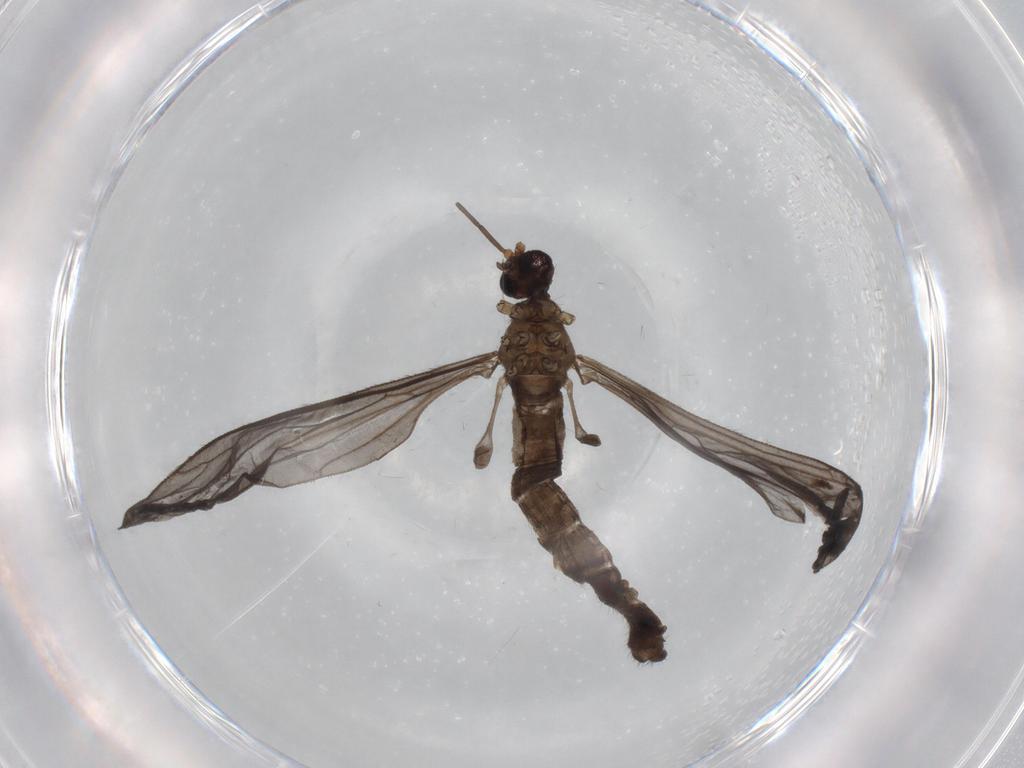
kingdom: Animalia
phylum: Arthropoda
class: Insecta
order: Diptera
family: Limoniidae
